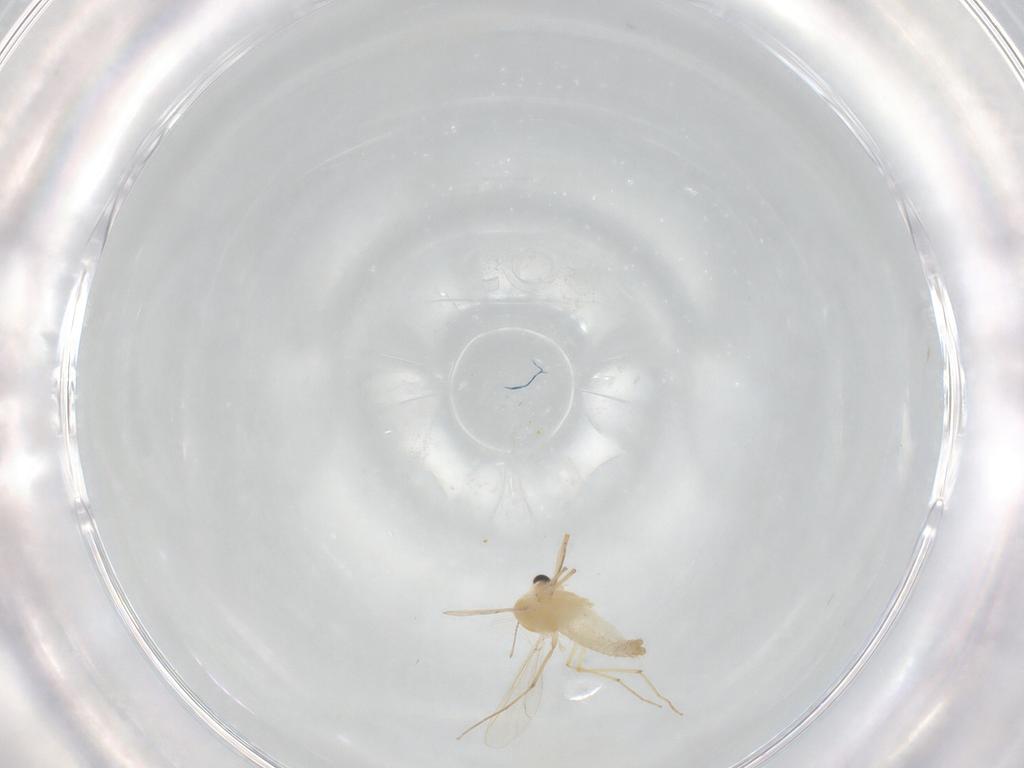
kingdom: Animalia
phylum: Arthropoda
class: Insecta
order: Diptera
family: Chironomidae
